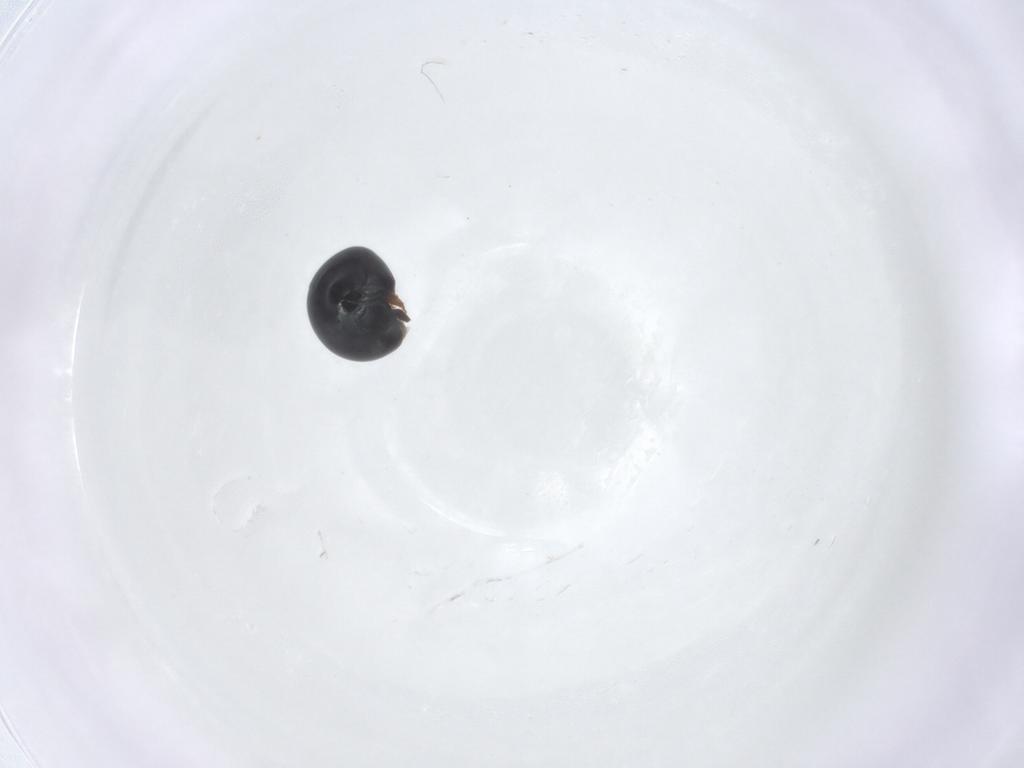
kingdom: Animalia
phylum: Arthropoda
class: Insecta
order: Coleoptera
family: Cybocephalidae
